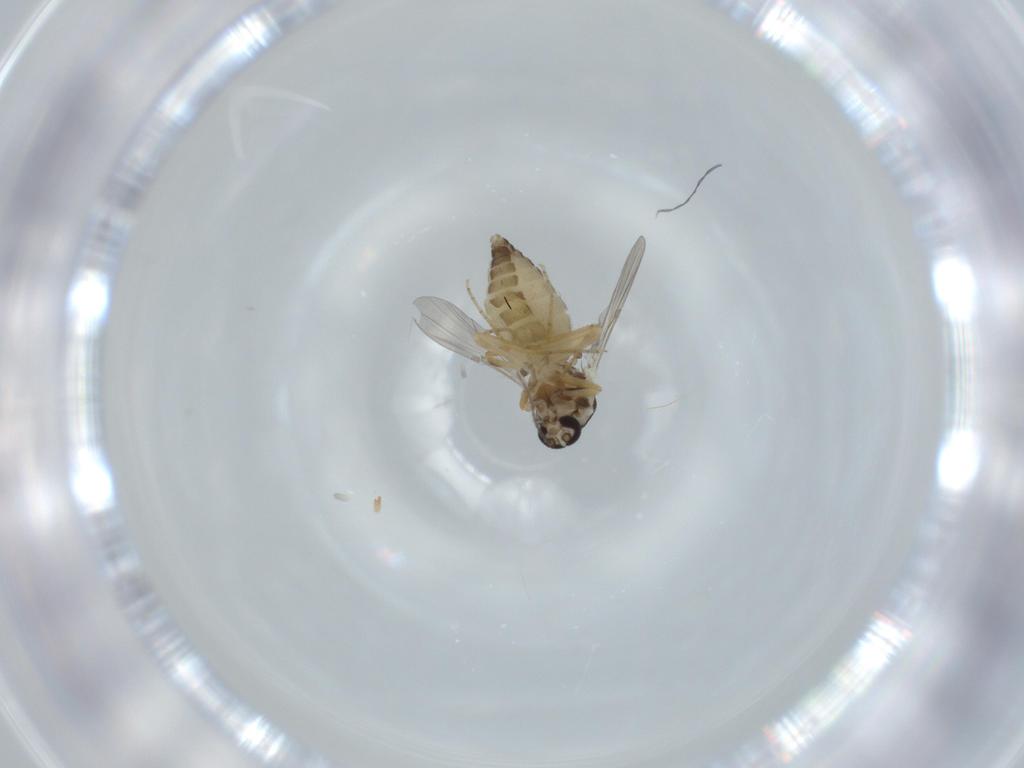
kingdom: Animalia
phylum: Arthropoda
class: Insecta
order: Diptera
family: Ceratopogonidae
